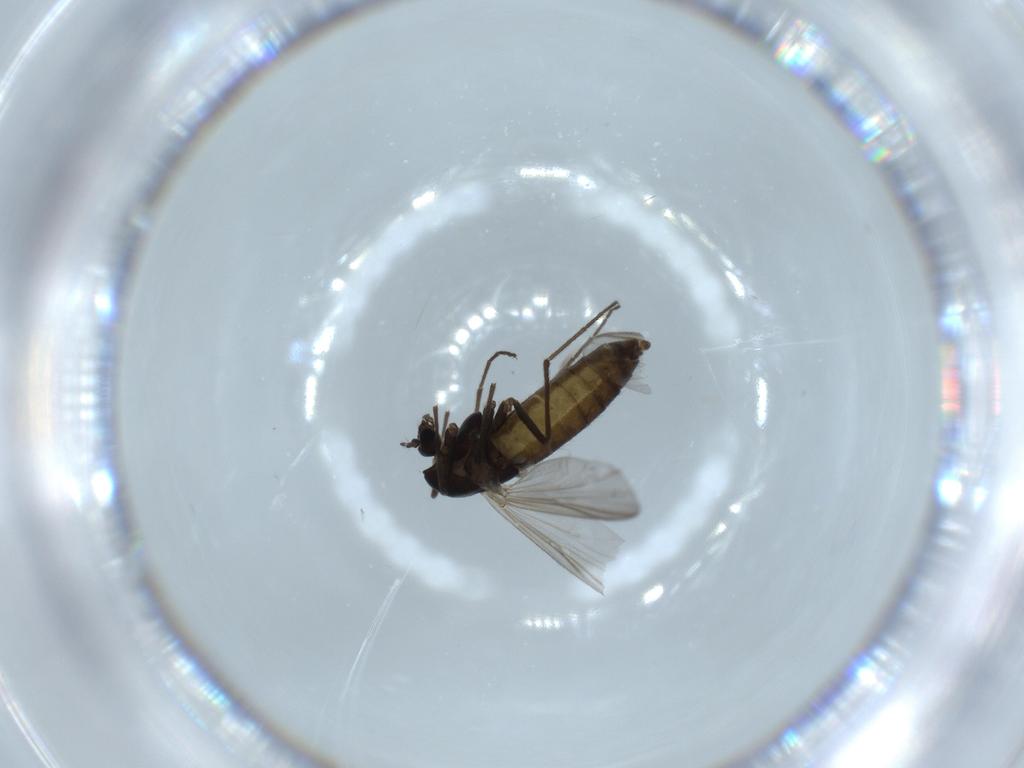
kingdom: Animalia
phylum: Arthropoda
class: Insecta
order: Diptera
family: Chironomidae
